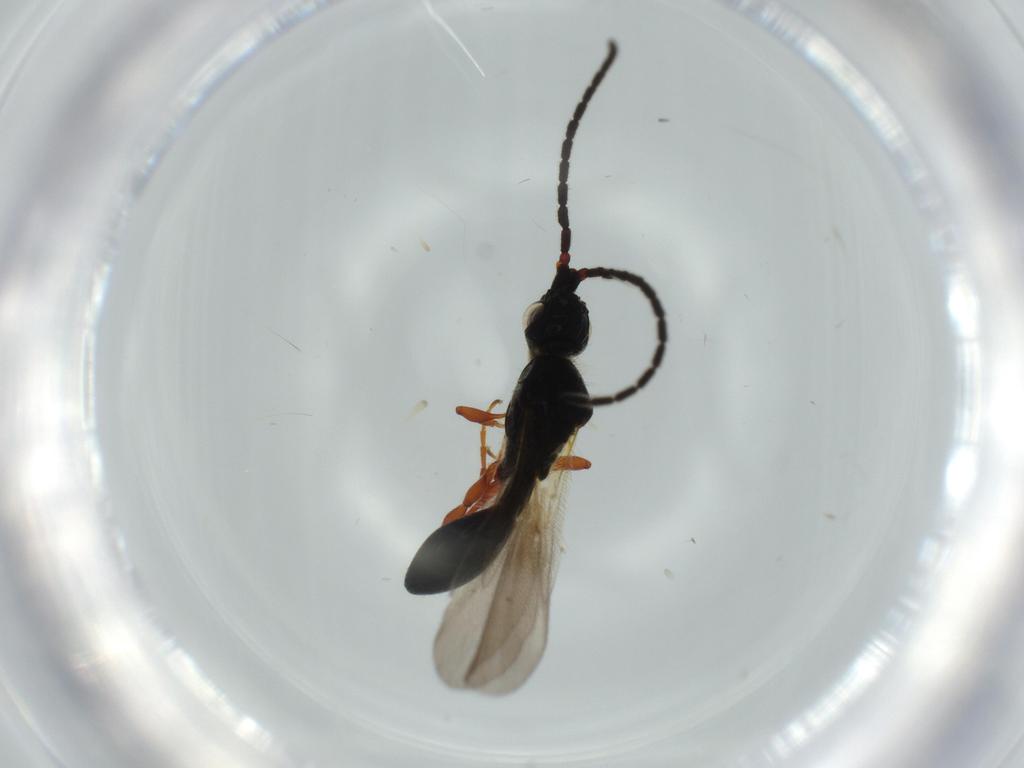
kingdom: Animalia
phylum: Arthropoda
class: Insecta
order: Hymenoptera
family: Diapriidae
